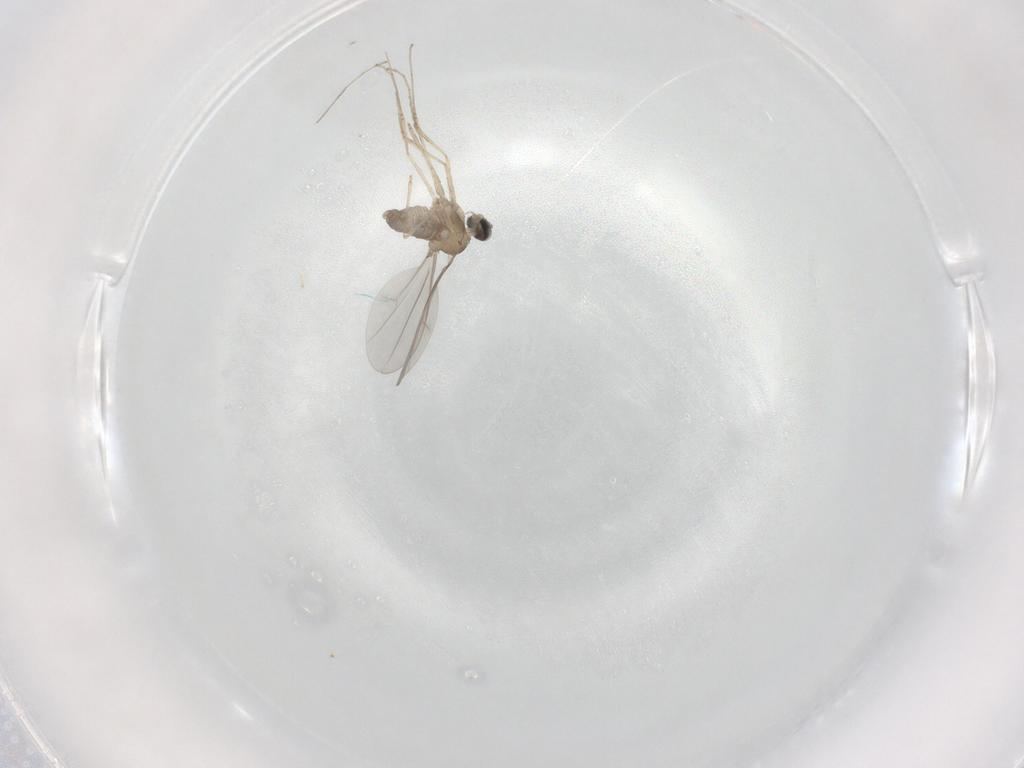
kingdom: Animalia
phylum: Arthropoda
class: Insecta
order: Diptera
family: Cecidomyiidae
